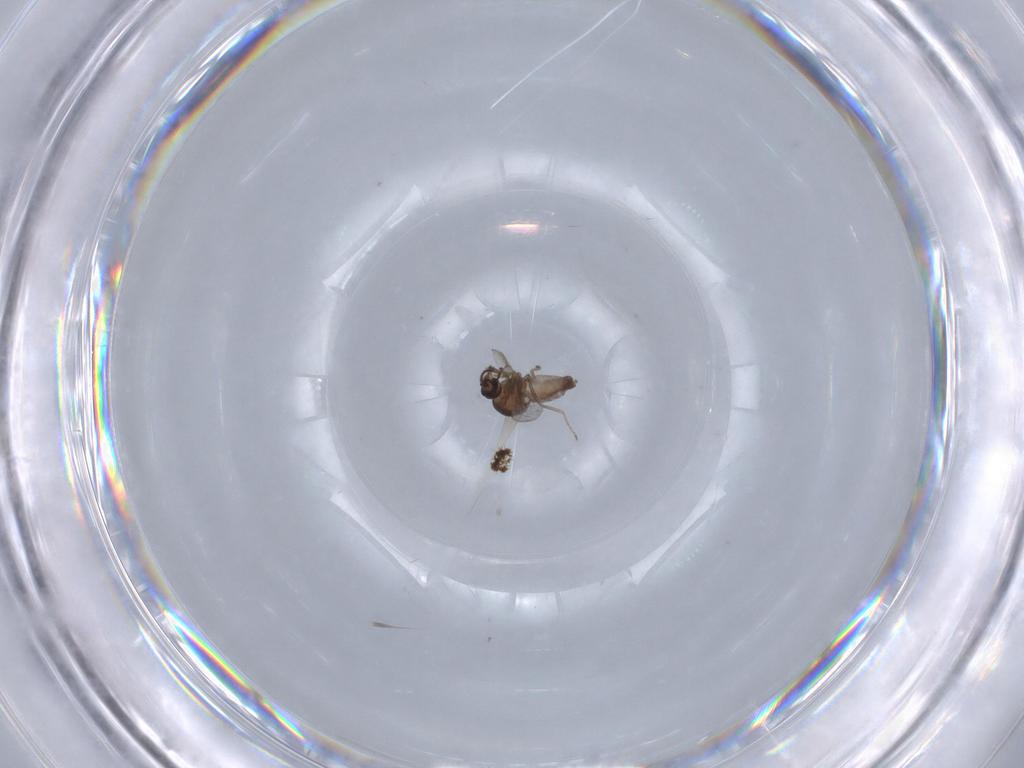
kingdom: Animalia
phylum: Arthropoda
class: Insecta
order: Diptera
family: Ceratopogonidae
